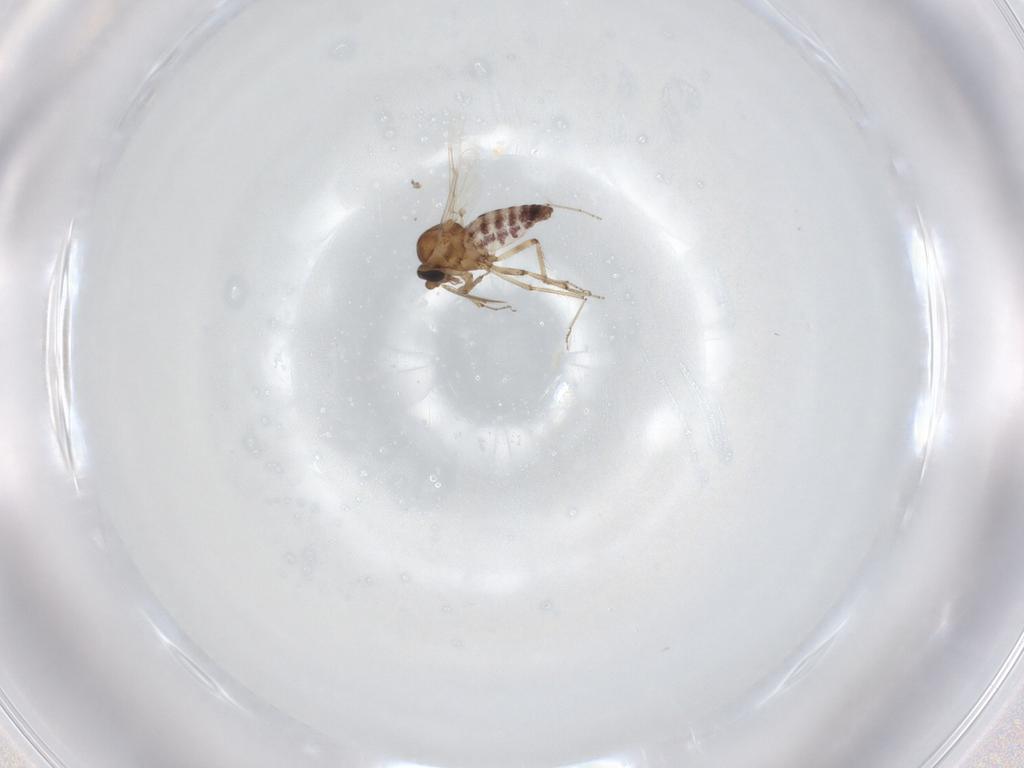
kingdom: Animalia
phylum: Arthropoda
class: Insecta
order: Diptera
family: Ceratopogonidae
